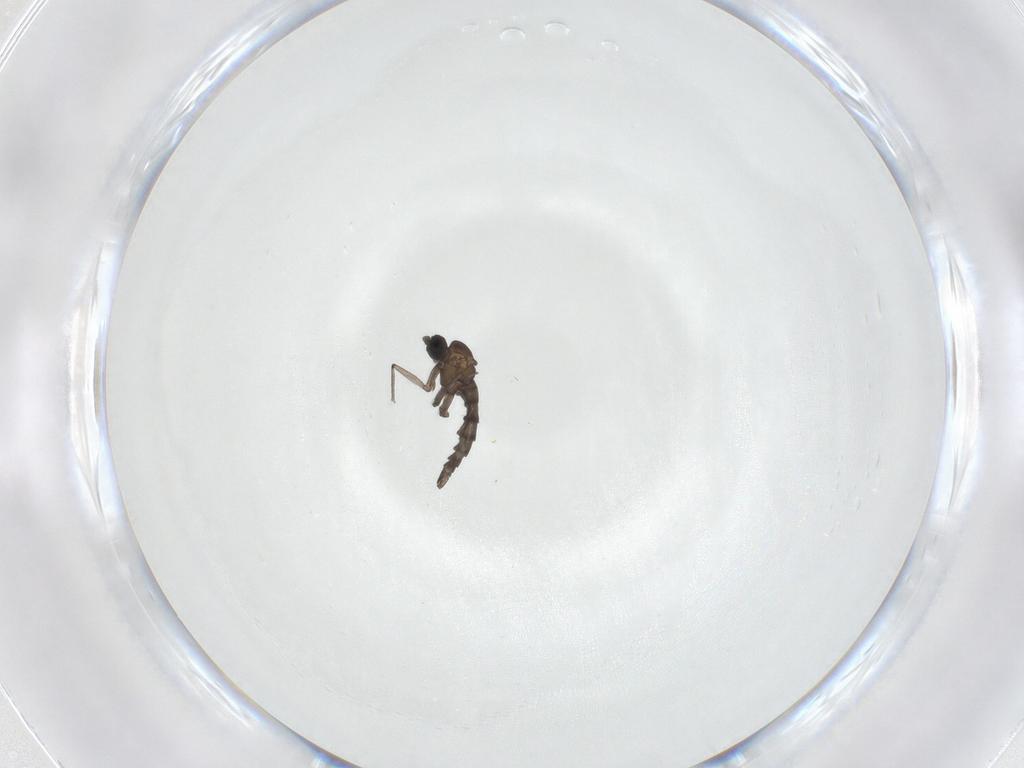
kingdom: Animalia
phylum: Arthropoda
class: Insecta
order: Diptera
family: Sciaridae
